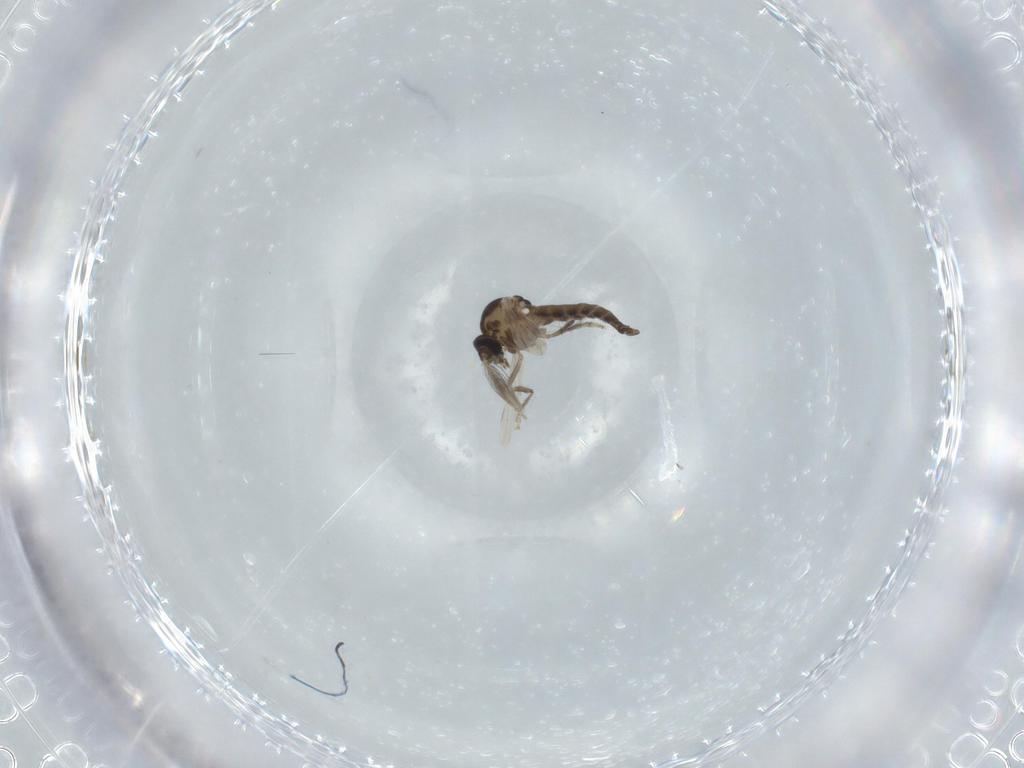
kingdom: Animalia
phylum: Arthropoda
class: Insecta
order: Diptera
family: Ceratopogonidae
